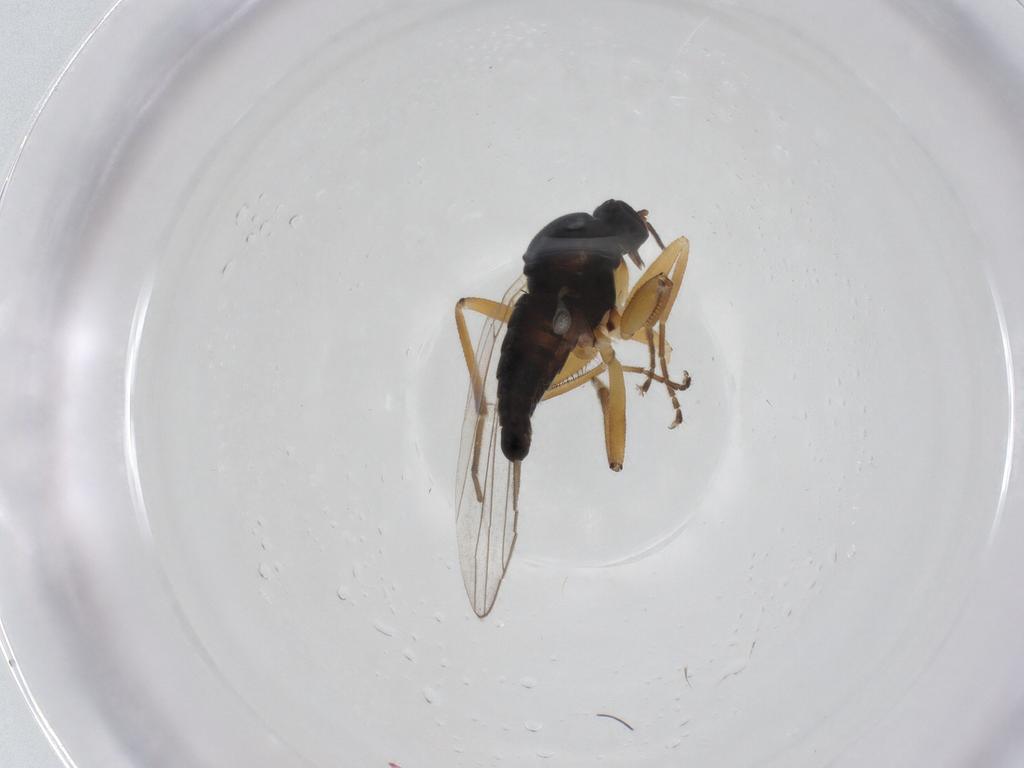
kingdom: Animalia
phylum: Arthropoda
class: Insecta
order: Diptera
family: Hybotidae
